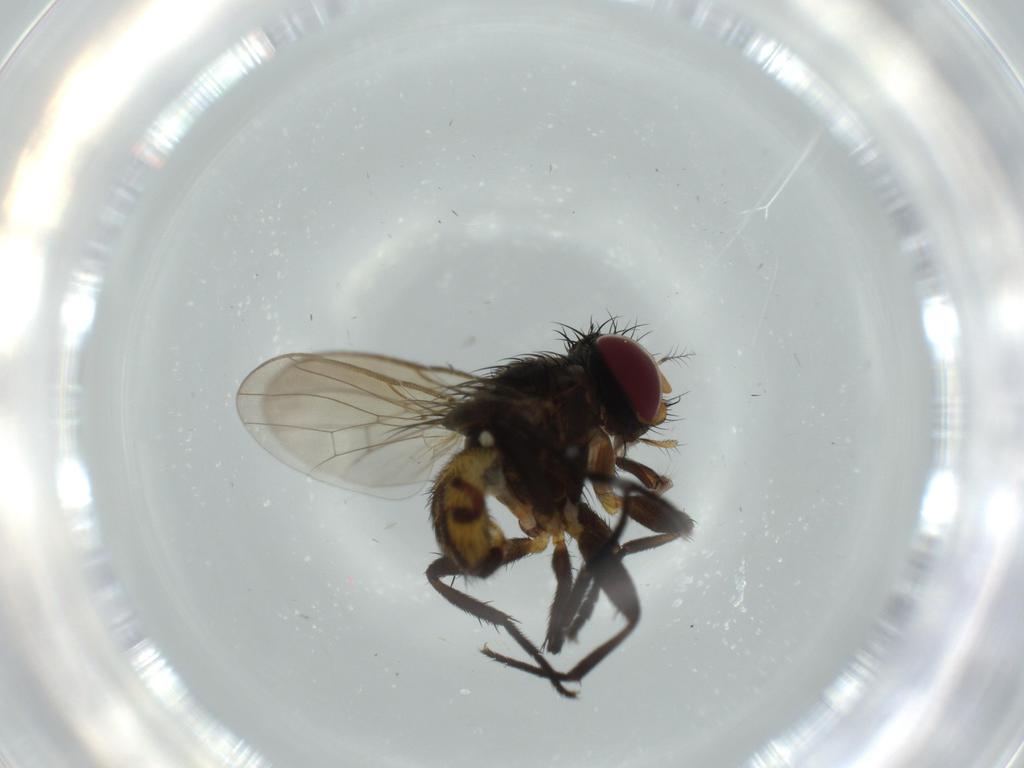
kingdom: Animalia
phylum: Arthropoda
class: Insecta
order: Diptera
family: Anthomyiidae
